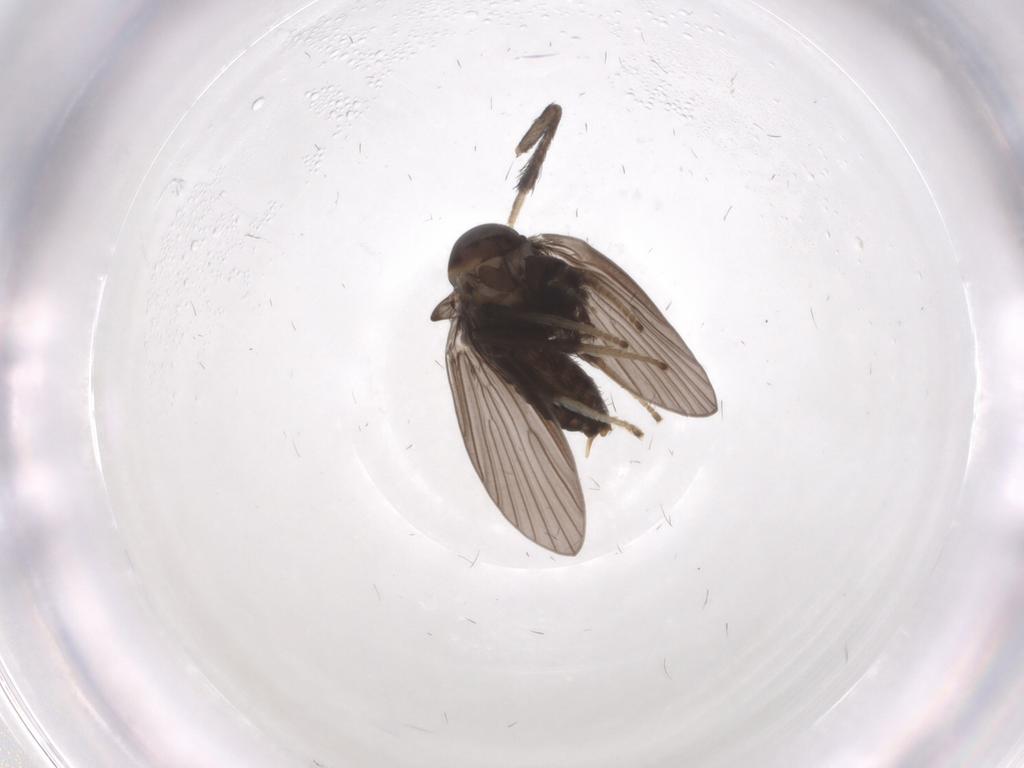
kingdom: Animalia
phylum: Arthropoda
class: Insecta
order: Diptera
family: Psychodidae
